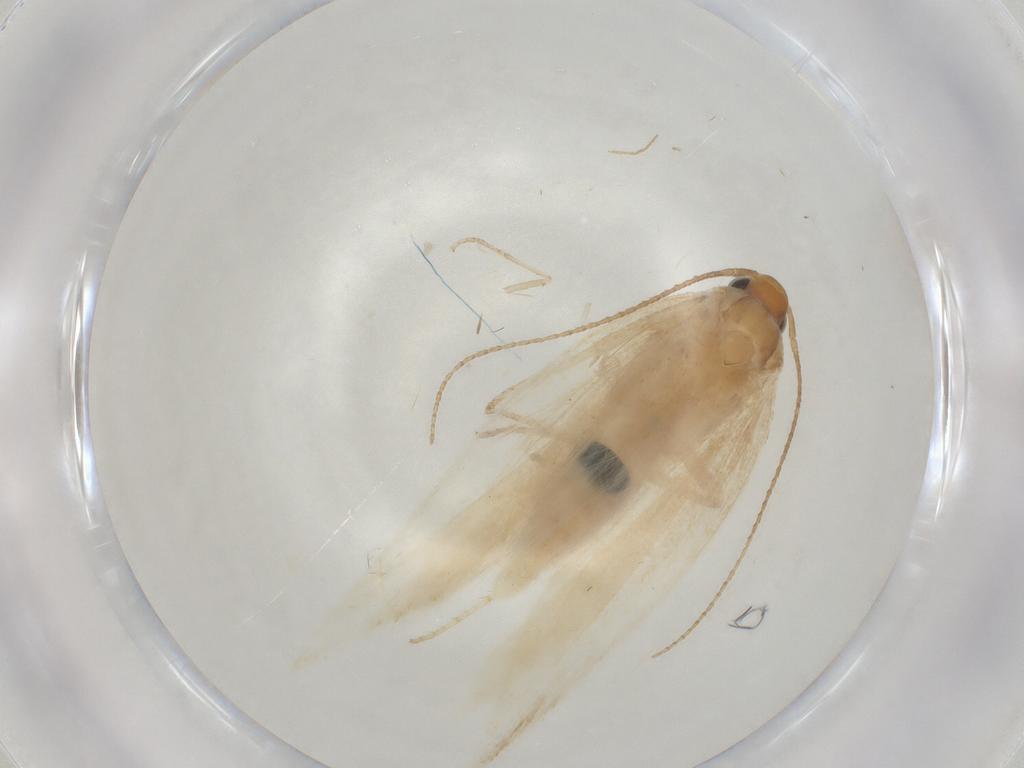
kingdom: Animalia
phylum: Arthropoda
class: Insecta
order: Lepidoptera
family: Gelechiidae
